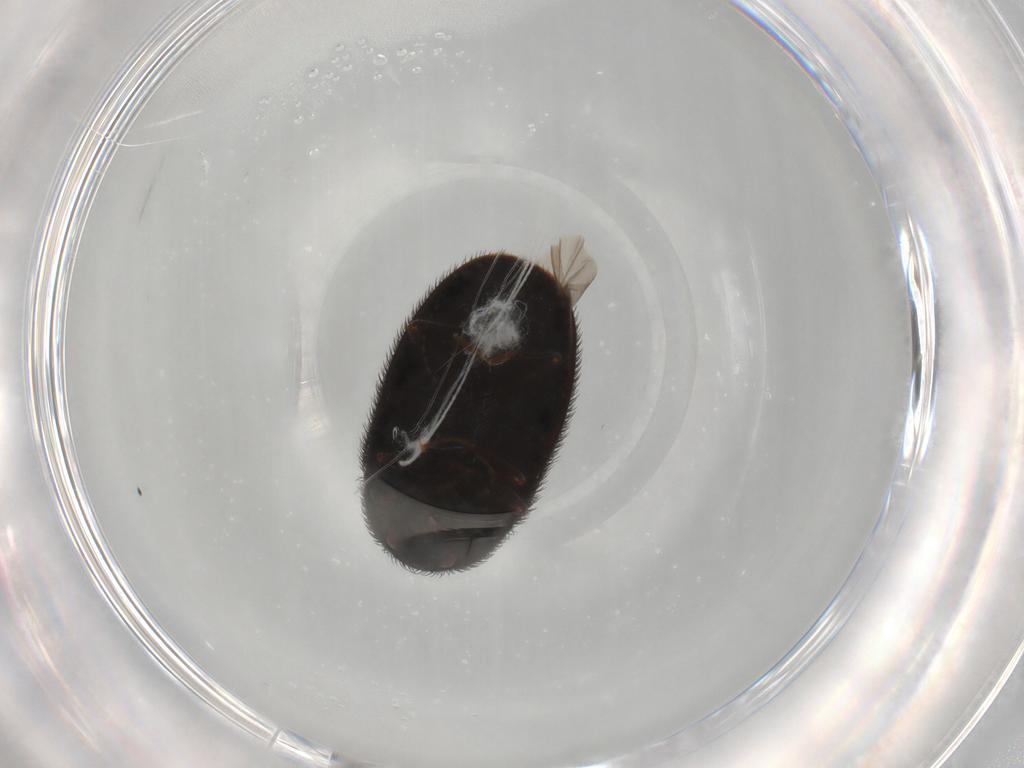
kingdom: Animalia
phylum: Arthropoda
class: Insecta
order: Coleoptera
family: Dermestidae
